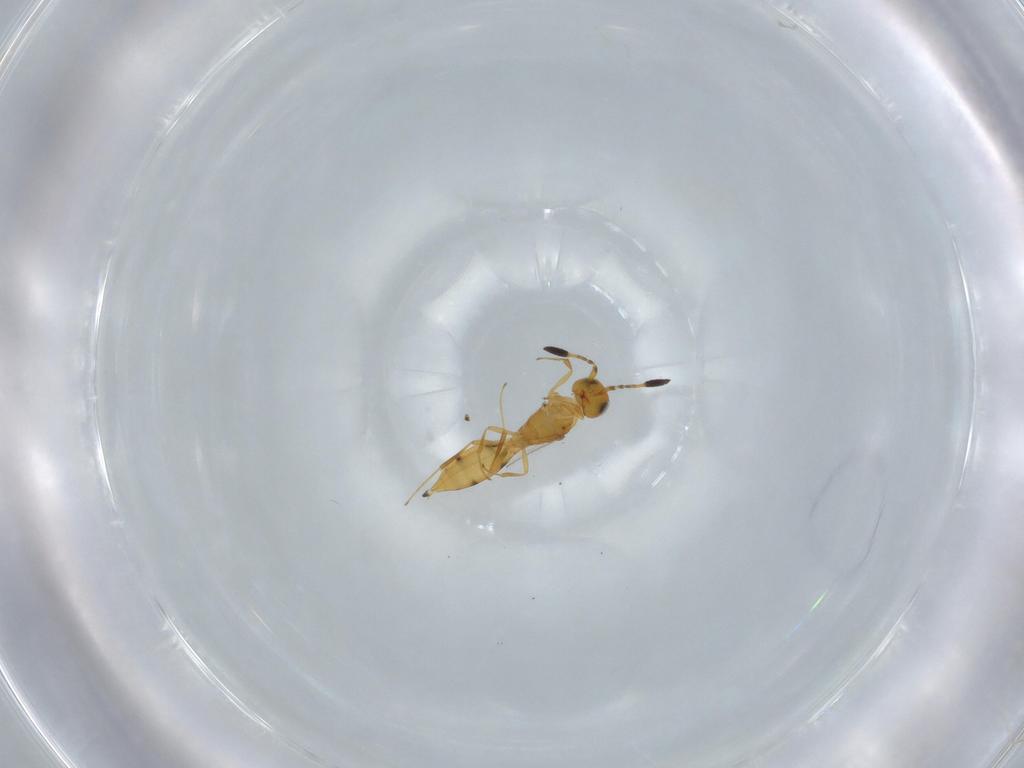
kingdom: Animalia
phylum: Arthropoda
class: Insecta
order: Hymenoptera
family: Scelionidae
